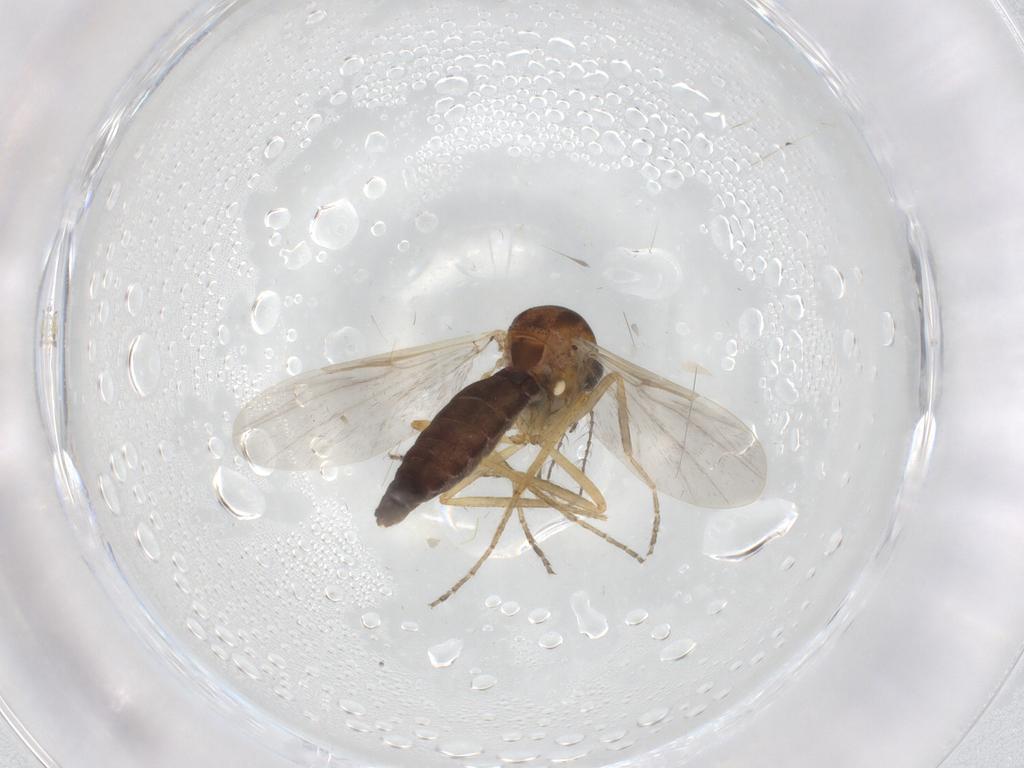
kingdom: Animalia
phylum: Arthropoda
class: Insecta
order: Diptera
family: Ceratopogonidae
